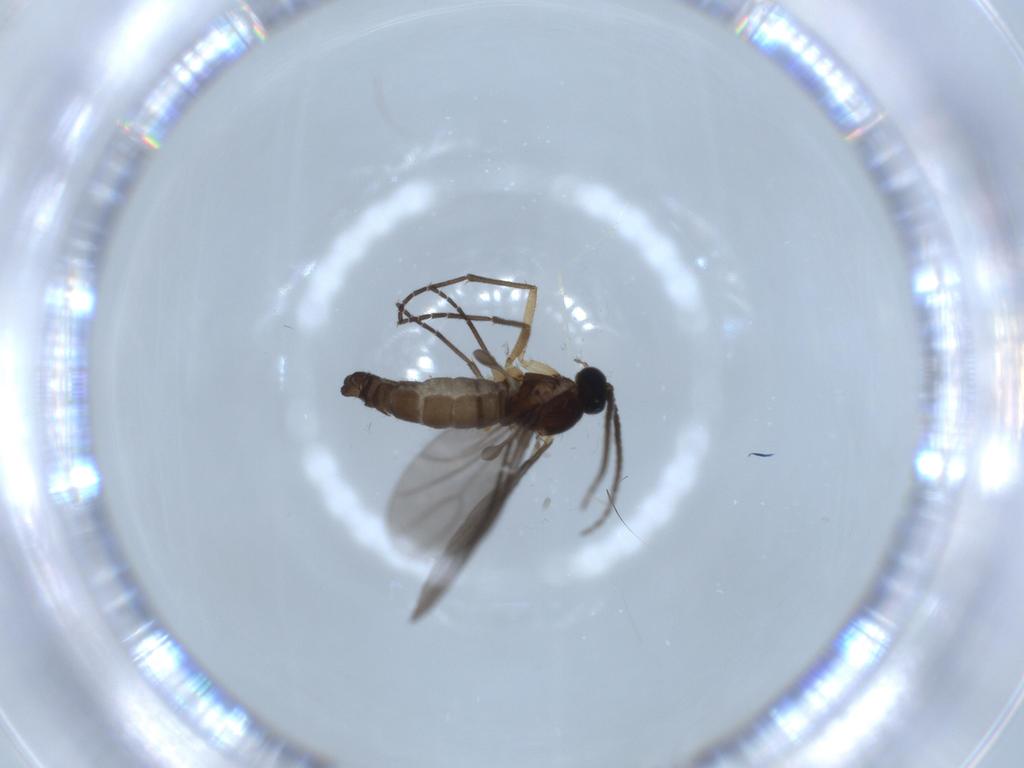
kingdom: Animalia
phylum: Arthropoda
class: Insecta
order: Diptera
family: Sciaridae
